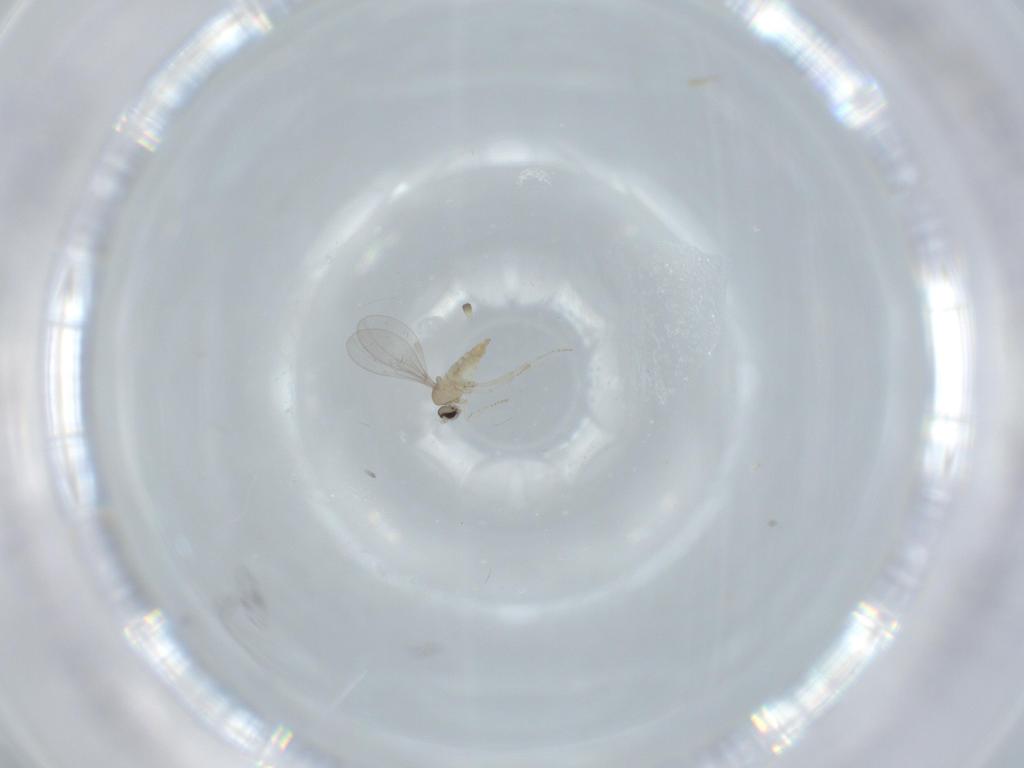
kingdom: Animalia
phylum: Arthropoda
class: Insecta
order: Diptera
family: Cecidomyiidae
